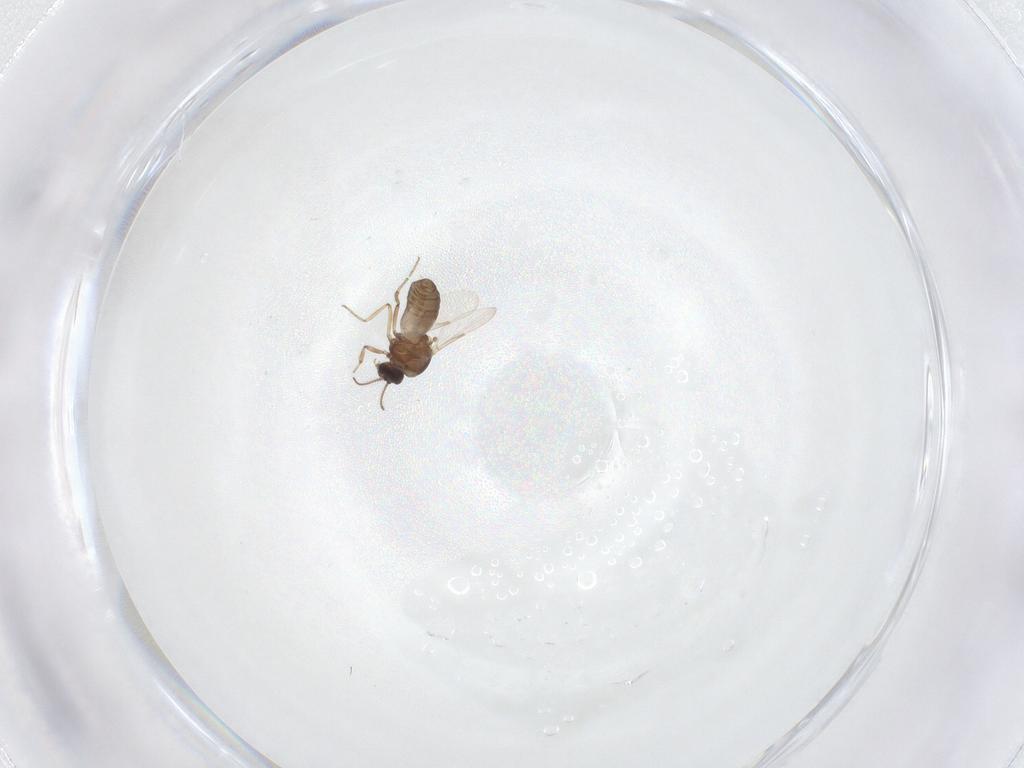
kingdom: Animalia
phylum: Arthropoda
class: Insecta
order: Diptera
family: Ceratopogonidae
